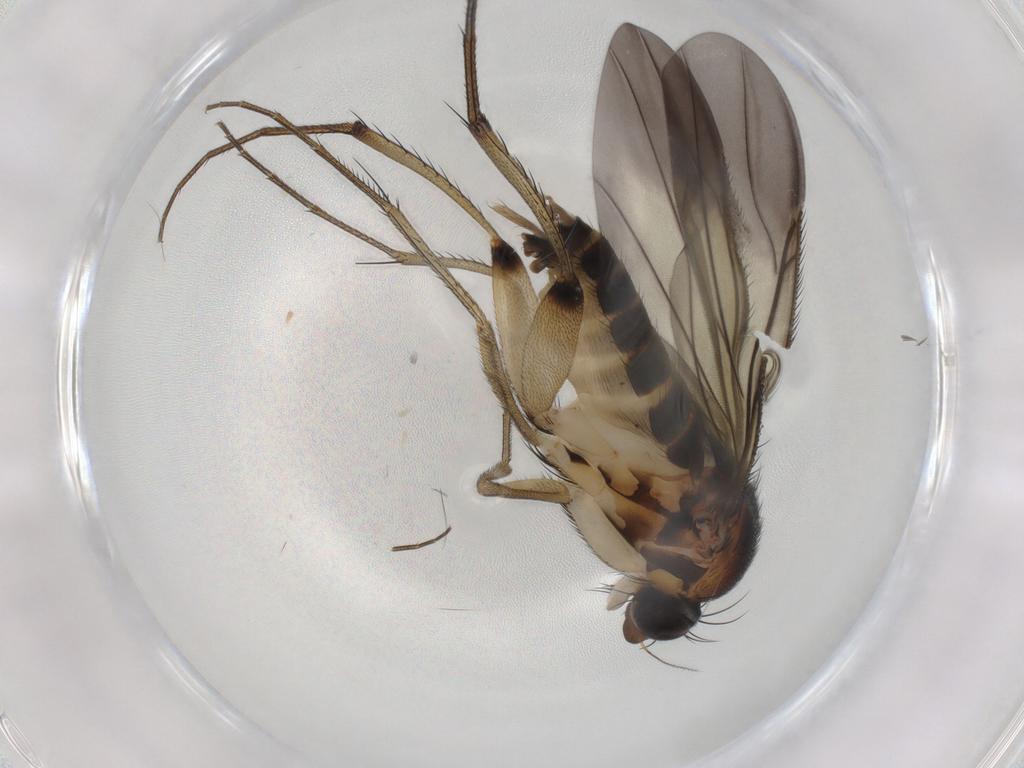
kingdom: Animalia
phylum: Arthropoda
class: Insecta
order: Diptera
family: Phoridae
